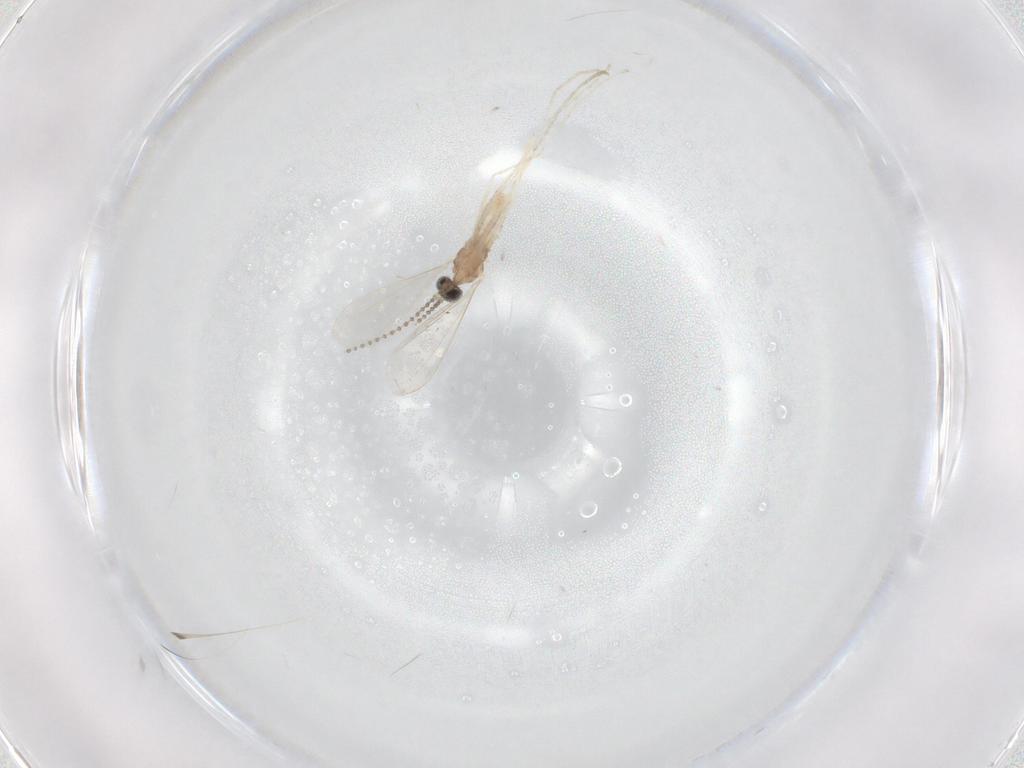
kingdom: Animalia
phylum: Arthropoda
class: Insecta
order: Diptera
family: Cecidomyiidae
